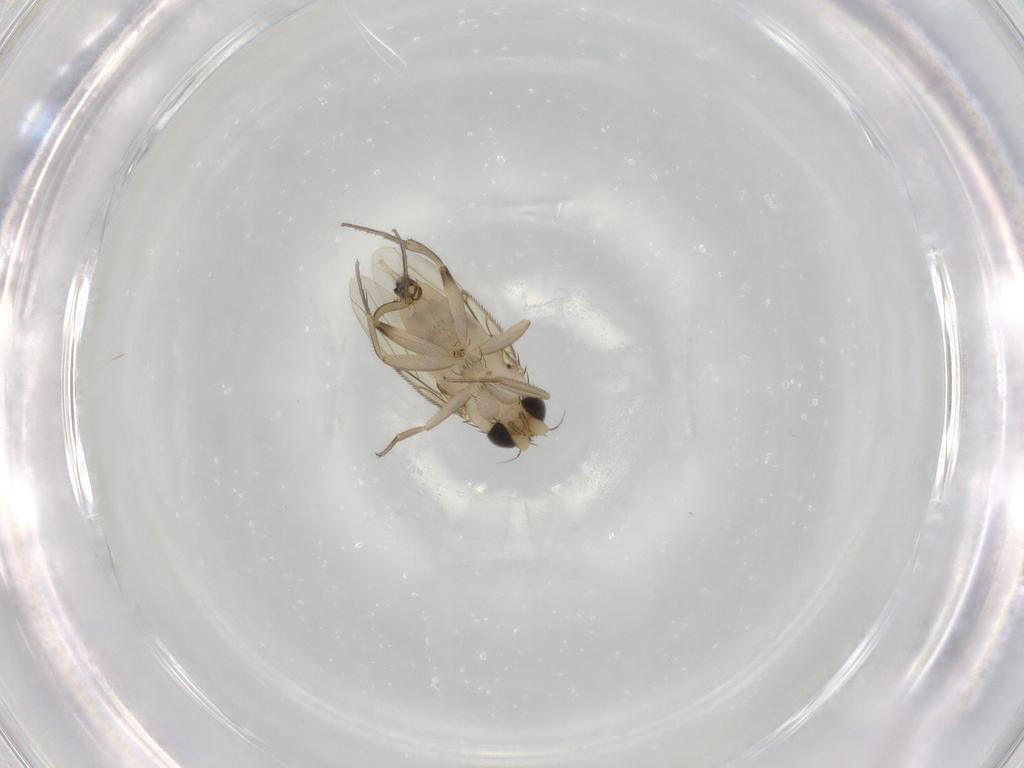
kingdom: Animalia
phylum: Arthropoda
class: Insecta
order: Diptera
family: Phoridae
